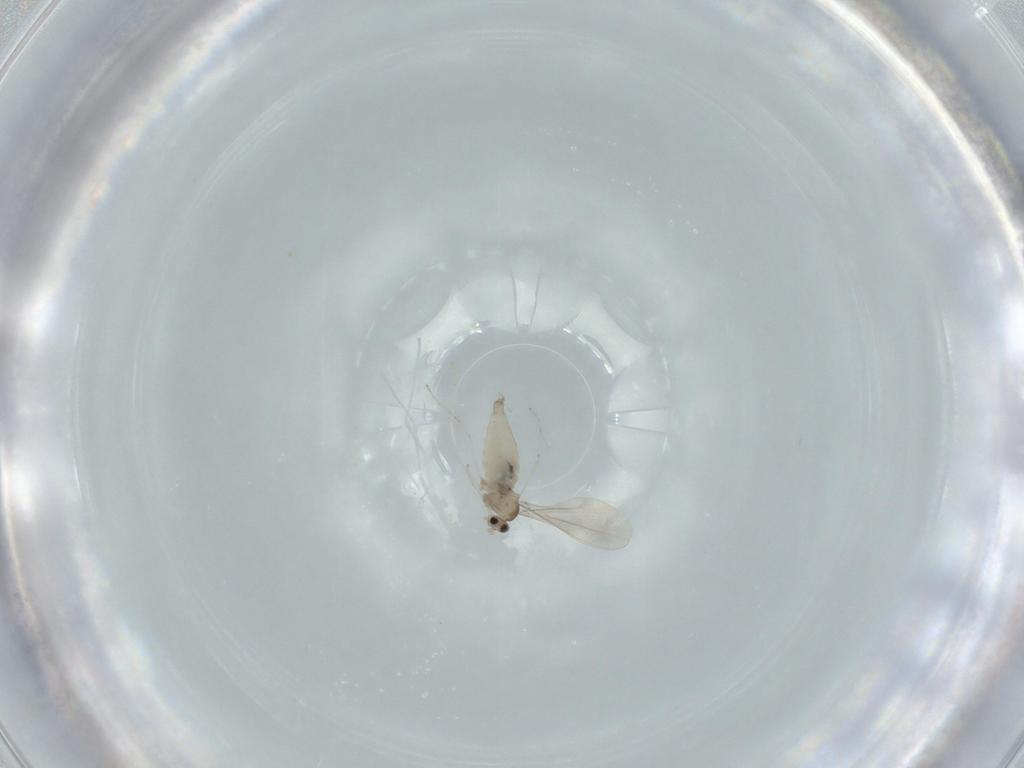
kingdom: Animalia
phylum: Arthropoda
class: Insecta
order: Diptera
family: Cecidomyiidae
